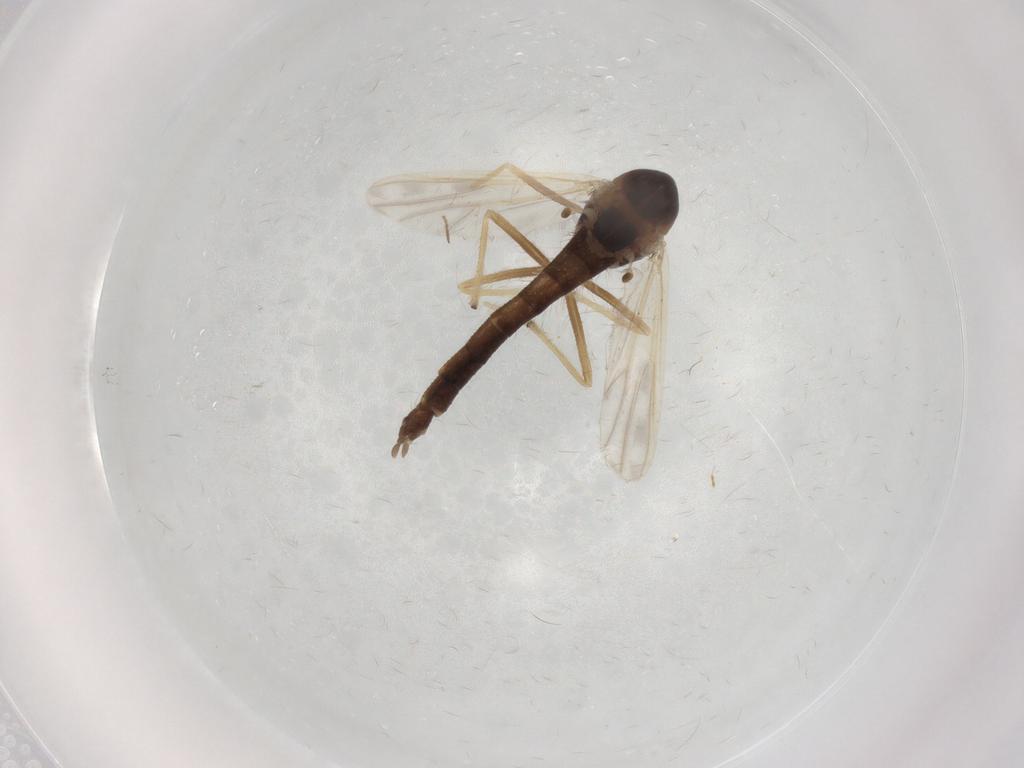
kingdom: Animalia
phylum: Arthropoda
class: Insecta
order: Diptera
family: Chironomidae
